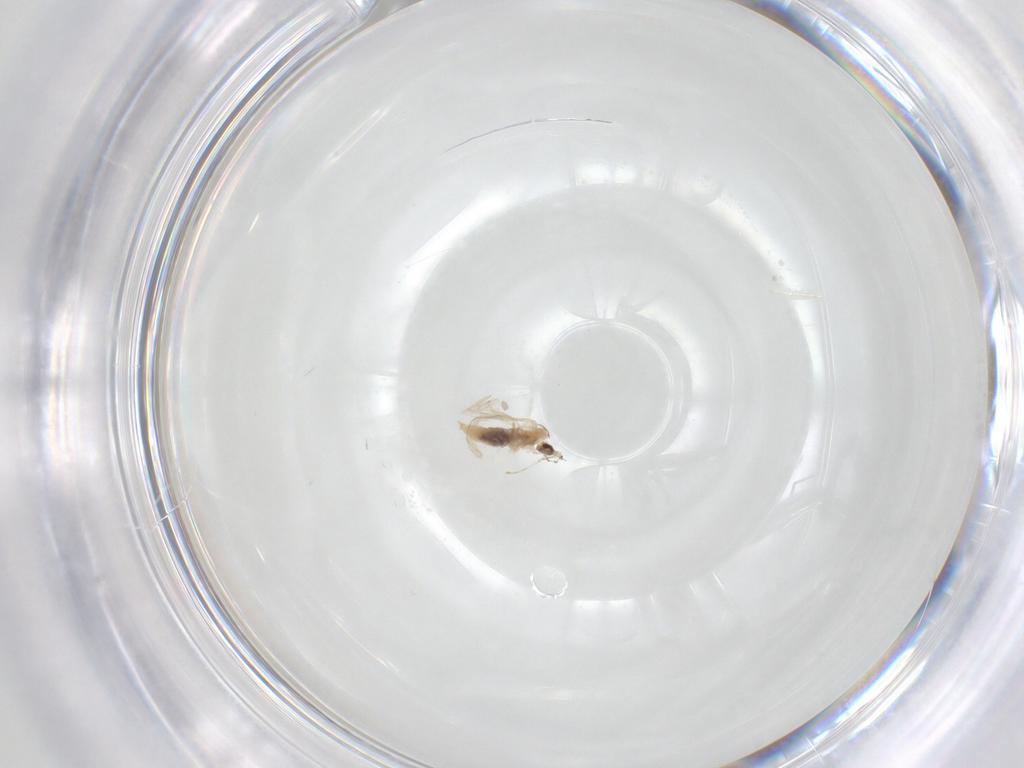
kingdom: Animalia
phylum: Arthropoda
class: Insecta
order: Diptera
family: Cecidomyiidae
